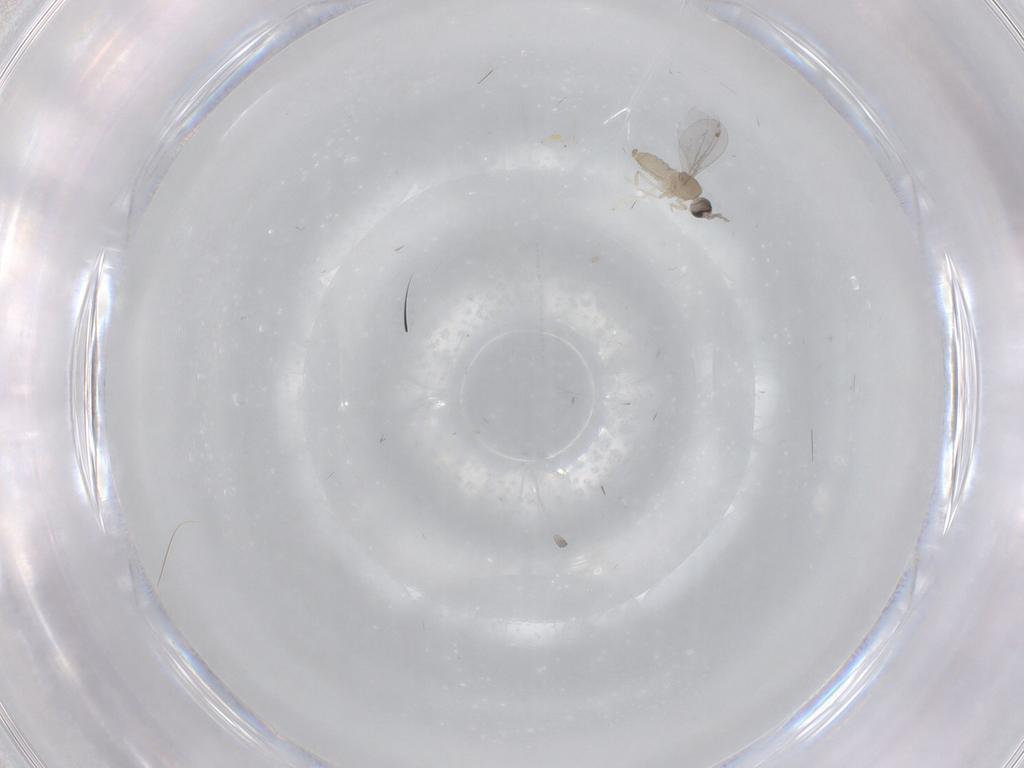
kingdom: Animalia
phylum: Arthropoda
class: Insecta
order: Diptera
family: Cecidomyiidae
